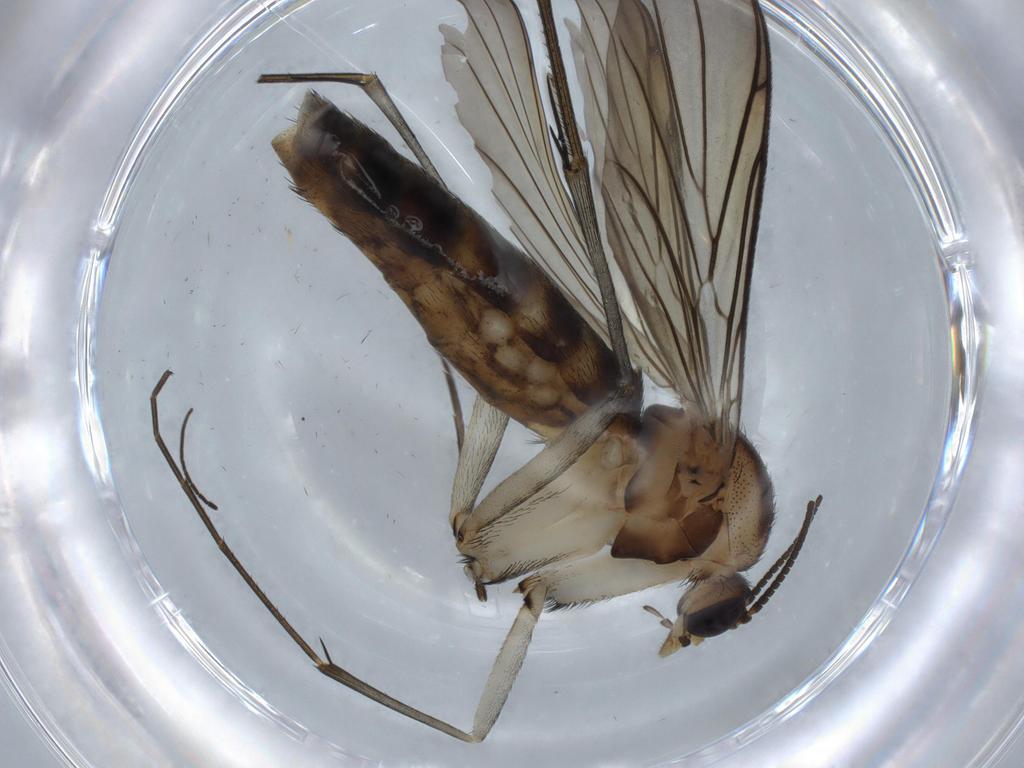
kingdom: Animalia
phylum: Arthropoda
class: Insecta
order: Diptera
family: Keroplatidae
